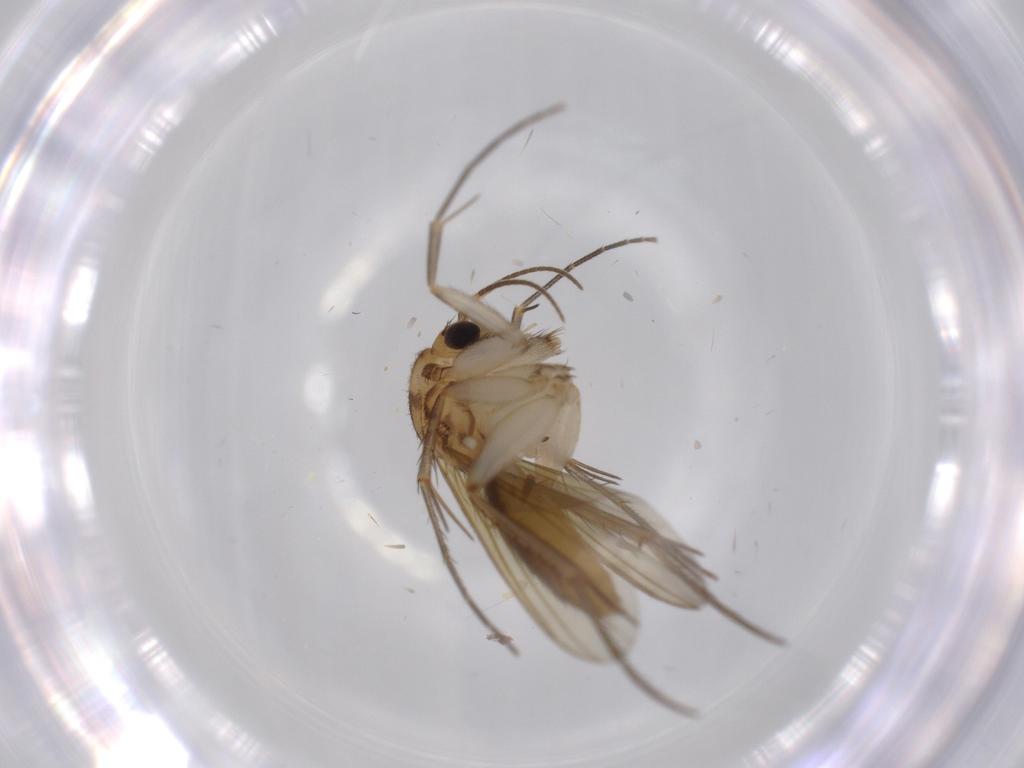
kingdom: Animalia
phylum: Arthropoda
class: Insecta
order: Diptera
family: Mycetophilidae
